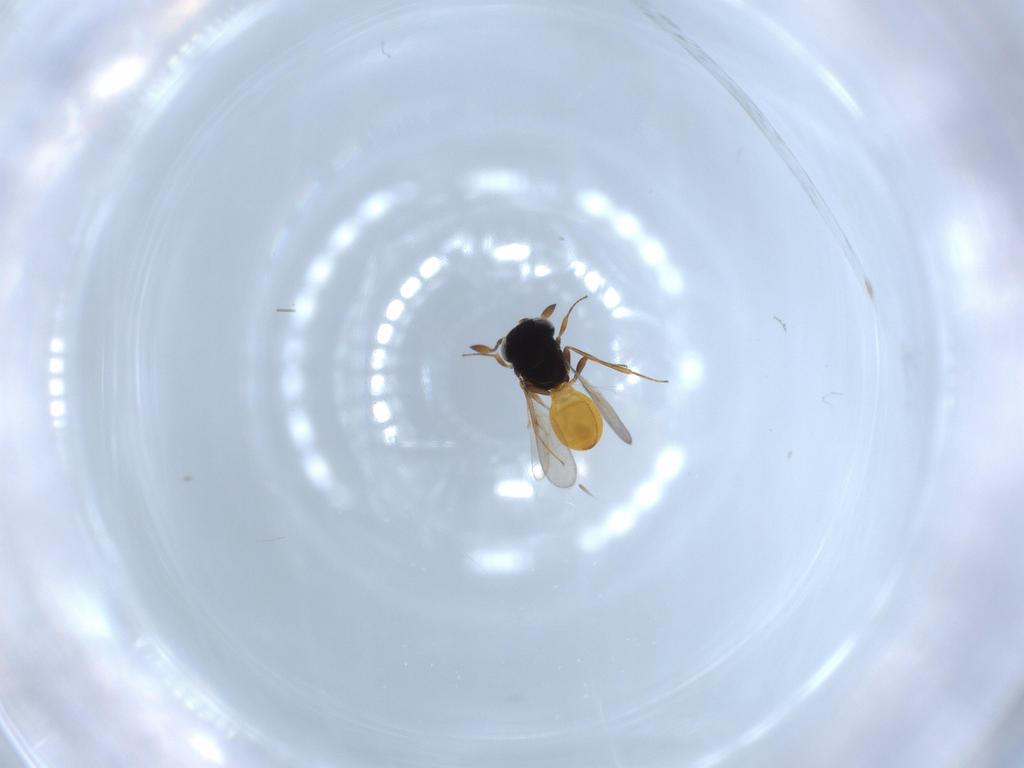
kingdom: Animalia
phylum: Arthropoda
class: Insecta
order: Hymenoptera
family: Scelionidae
